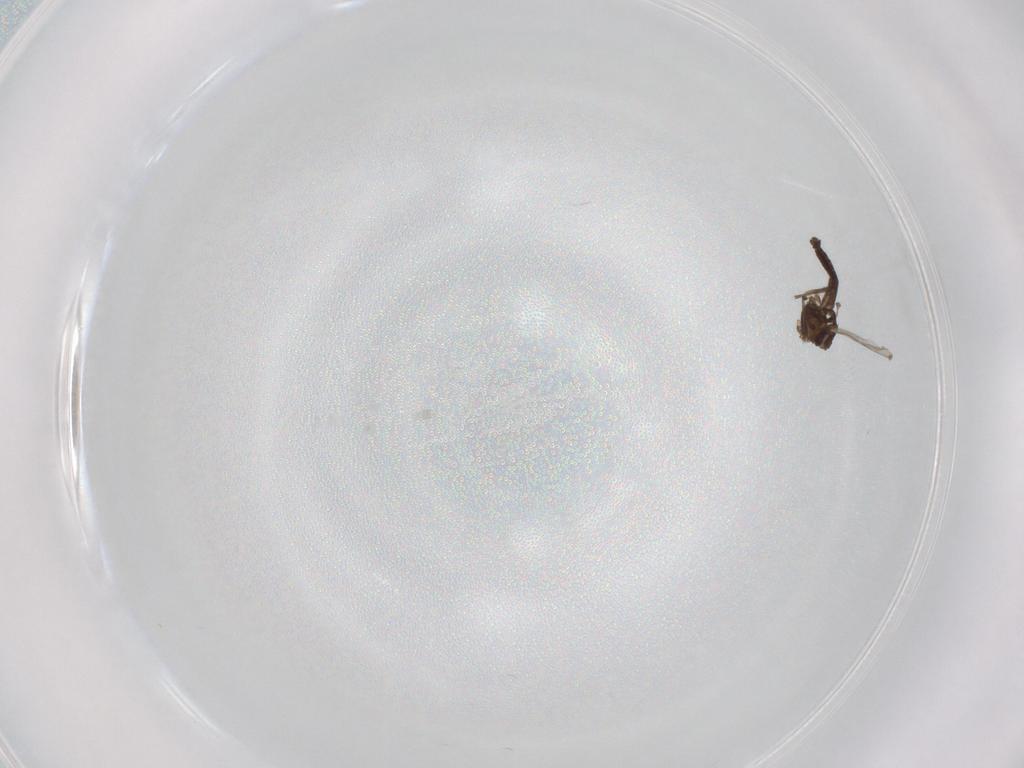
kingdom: Animalia
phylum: Arthropoda
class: Insecta
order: Diptera
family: Chironomidae
